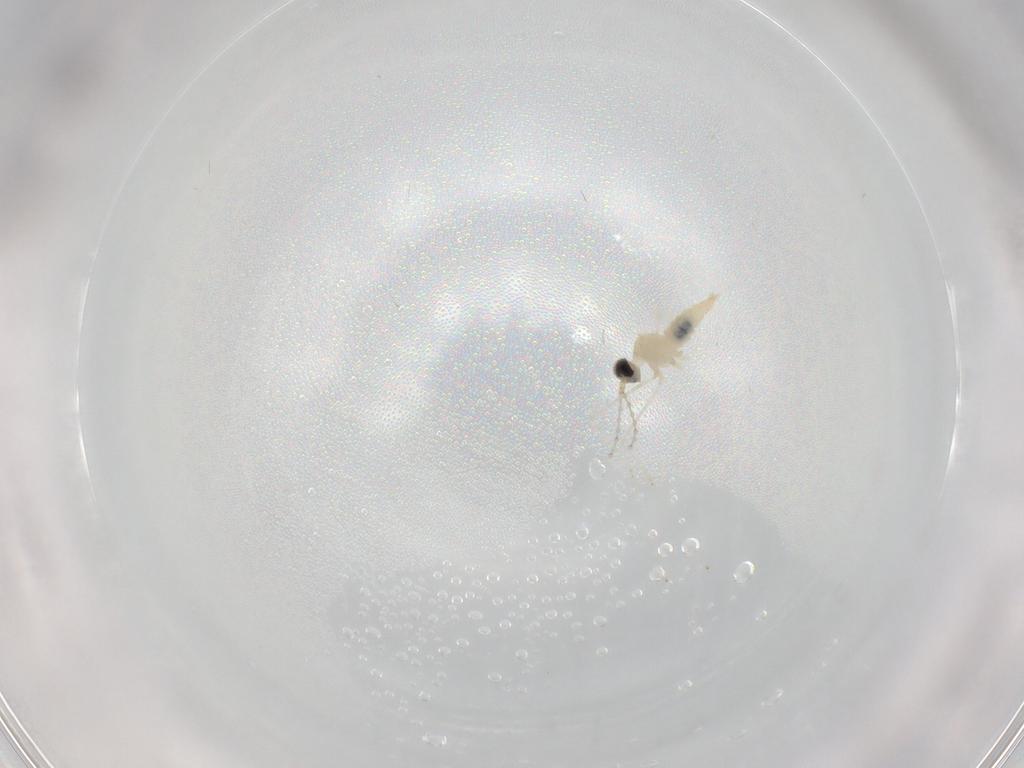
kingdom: Animalia
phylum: Arthropoda
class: Insecta
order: Diptera
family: Cecidomyiidae
